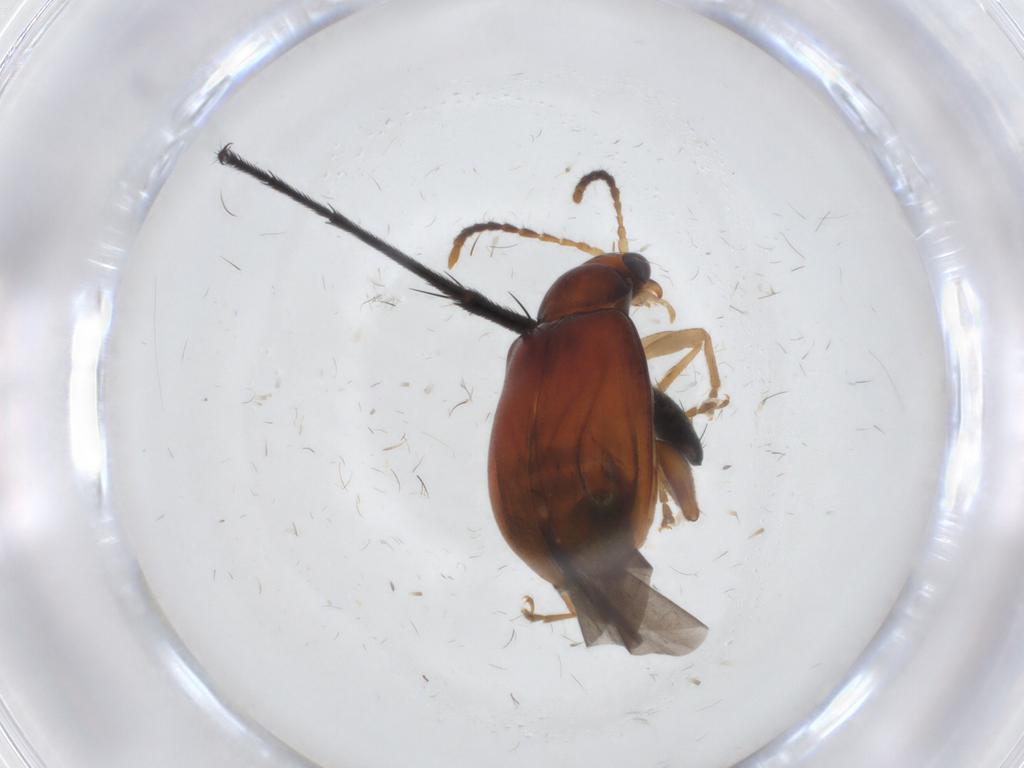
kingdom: Animalia
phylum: Arthropoda
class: Insecta
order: Coleoptera
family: Chrysomelidae
